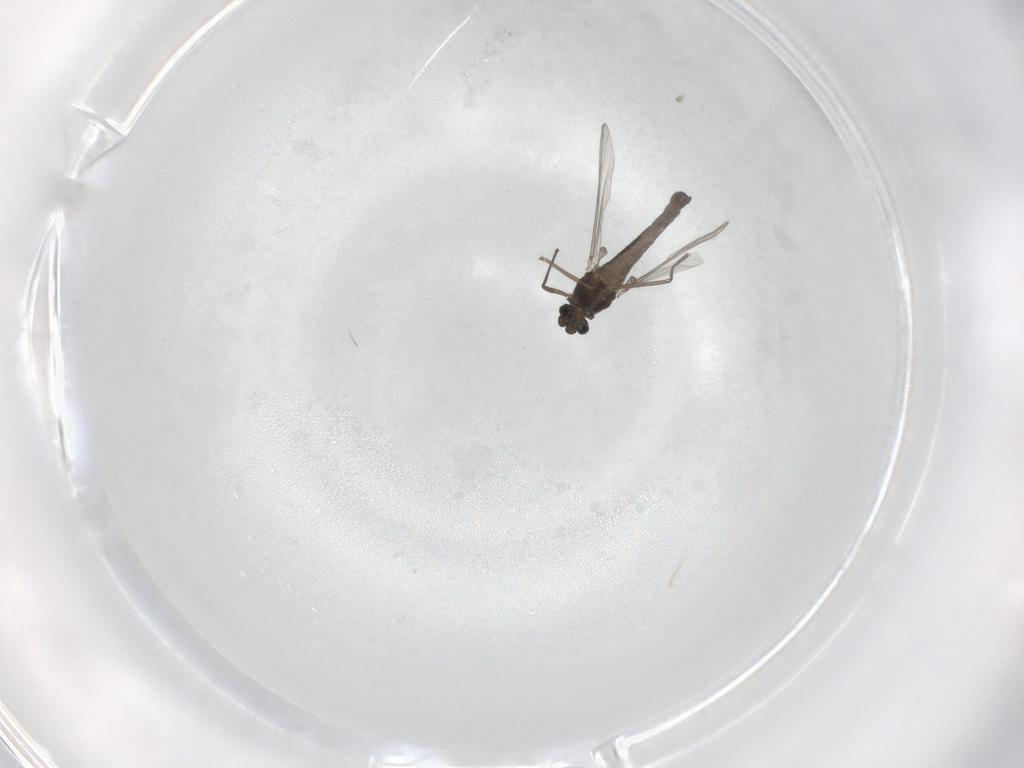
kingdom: Animalia
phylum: Arthropoda
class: Insecta
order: Diptera
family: Chironomidae
